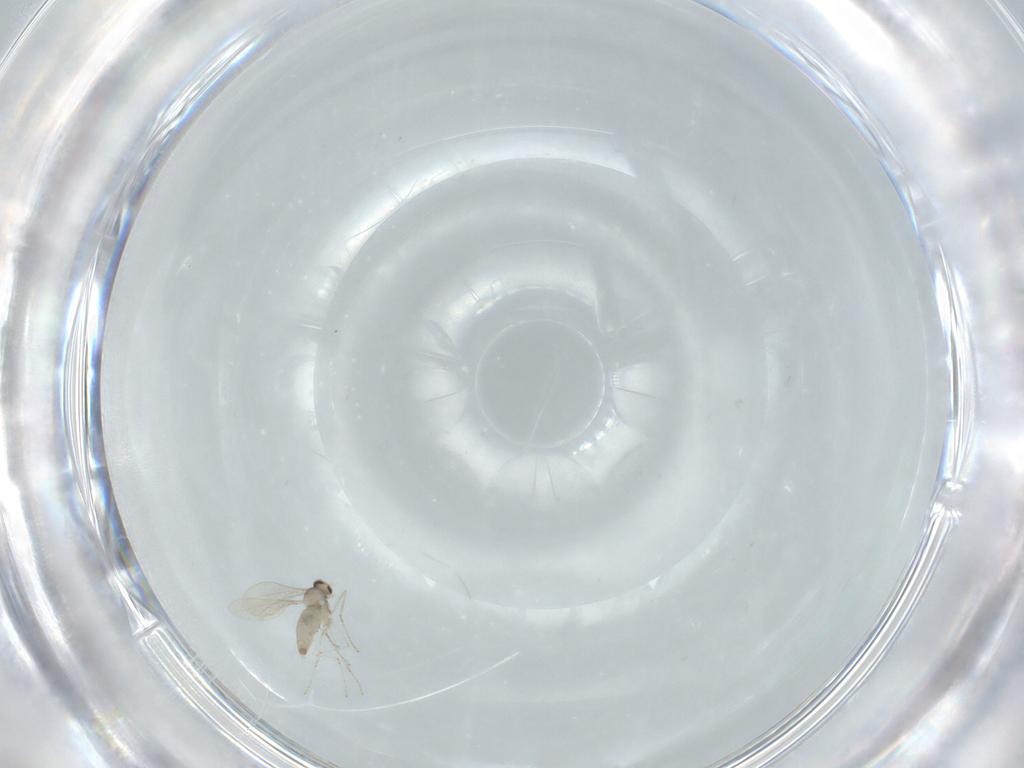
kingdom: Animalia
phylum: Arthropoda
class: Insecta
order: Diptera
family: Cecidomyiidae
